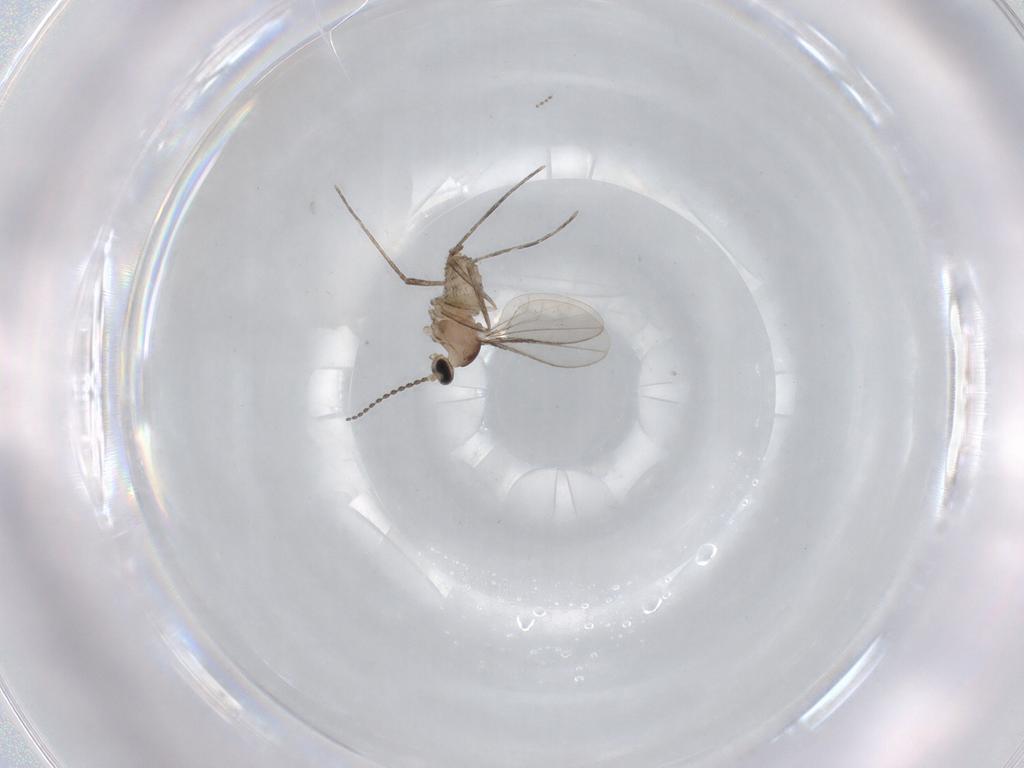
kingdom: Animalia
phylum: Arthropoda
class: Insecta
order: Diptera
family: Cecidomyiidae
